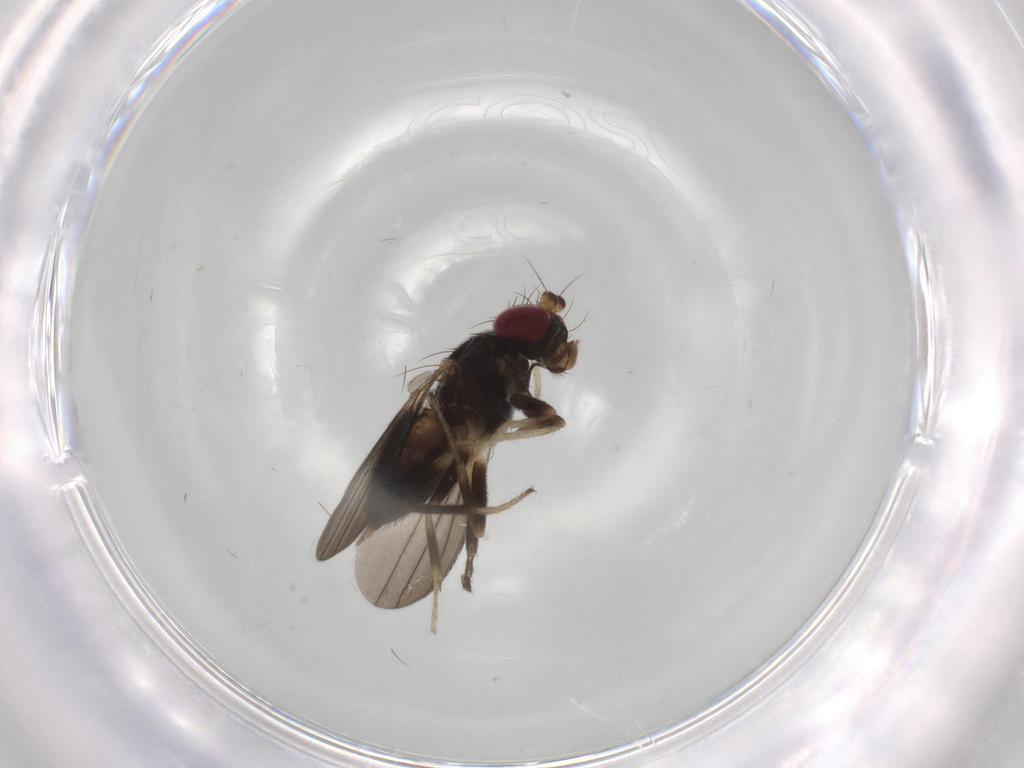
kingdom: Animalia
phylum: Arthropoda
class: Insecta
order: Diptera
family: Clusiidae
